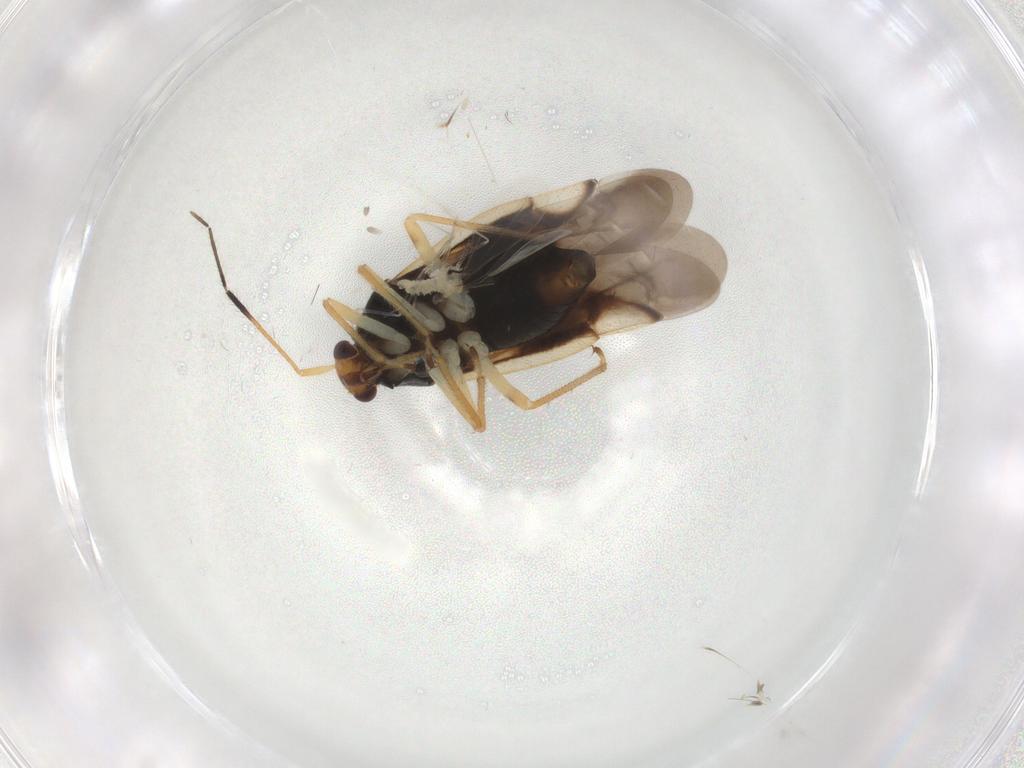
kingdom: Animalia
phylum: Arthropoda
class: Insecta
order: Hemiptera
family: Miridae
